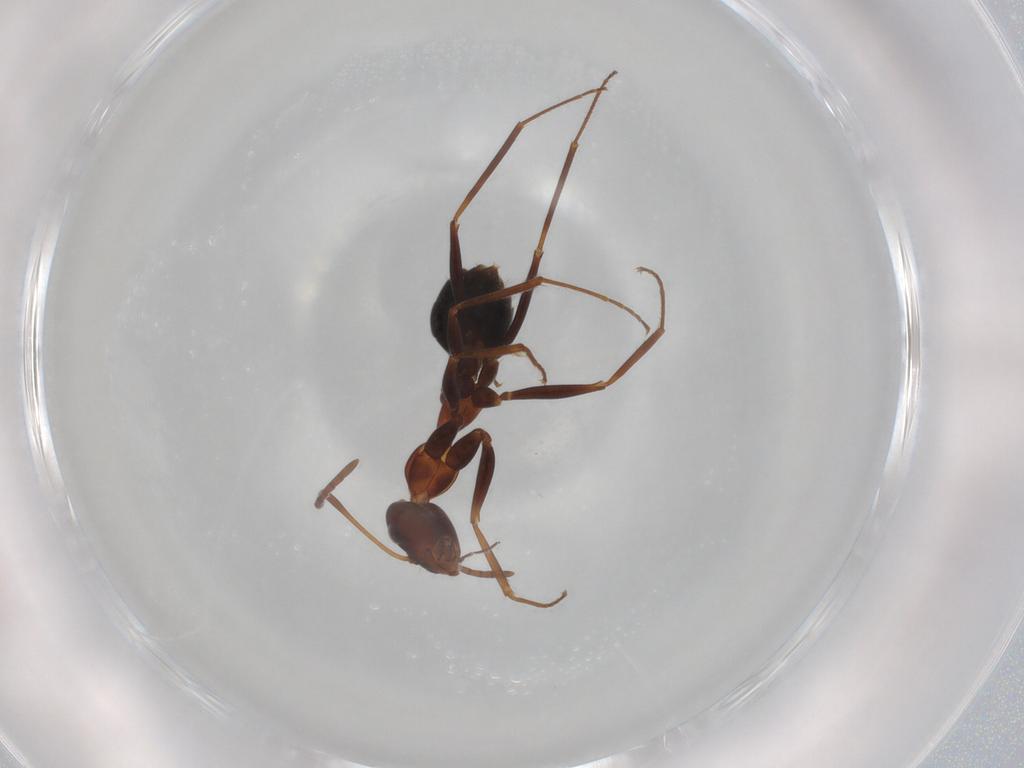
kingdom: Animalia
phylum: Arthropoda
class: Insecta
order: Hymenoptera
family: Formicidae
